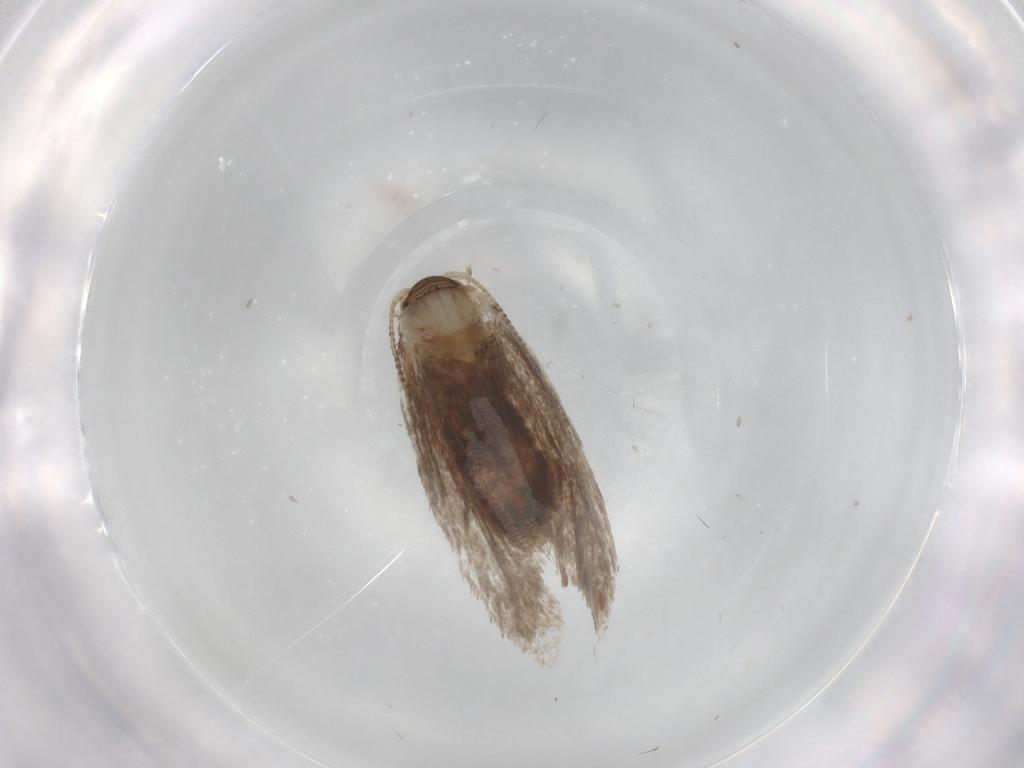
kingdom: Animalia
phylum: Arthropoda
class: Insecta
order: Lepidoptera
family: Dryadaulidae
